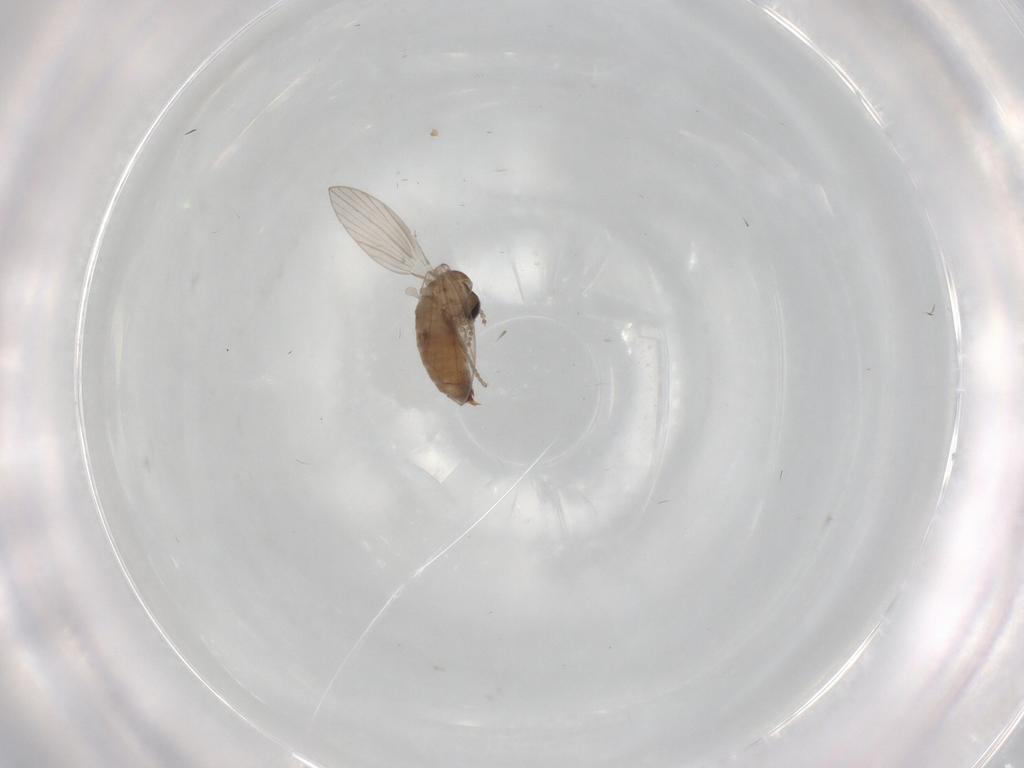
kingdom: Animalia
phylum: Arthropoda
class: Insecta
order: Diptera
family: Psychodidae
